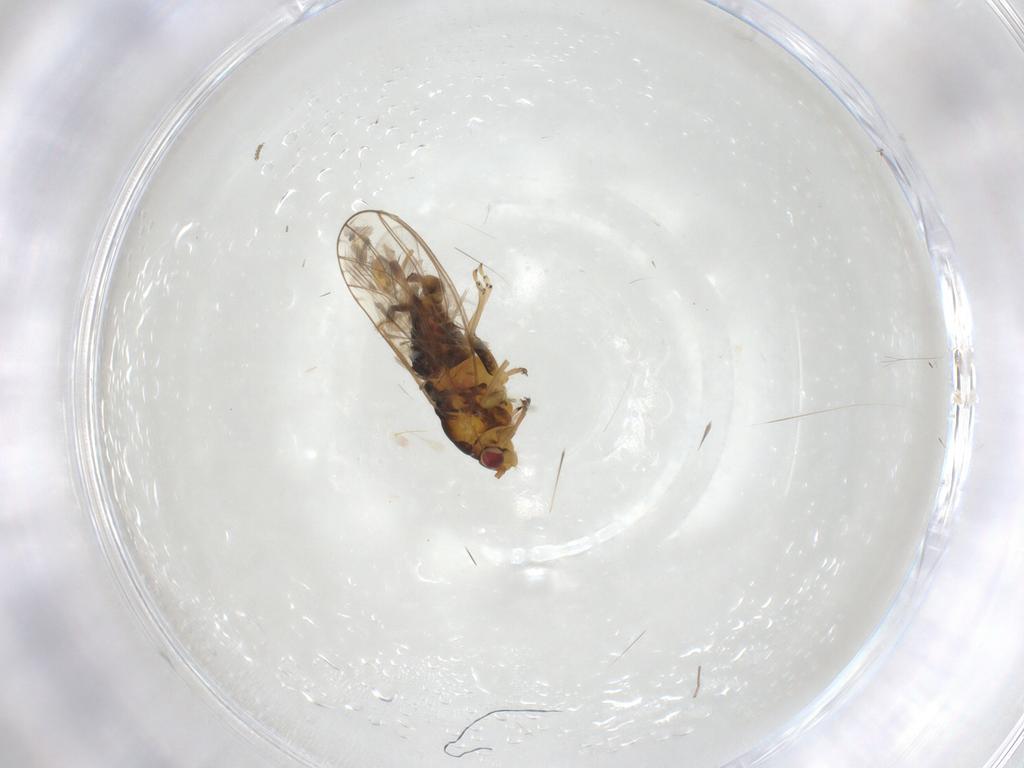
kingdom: Animalia
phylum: Arthropoda
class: Insecta
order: Hemiptera
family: Psyllidae
